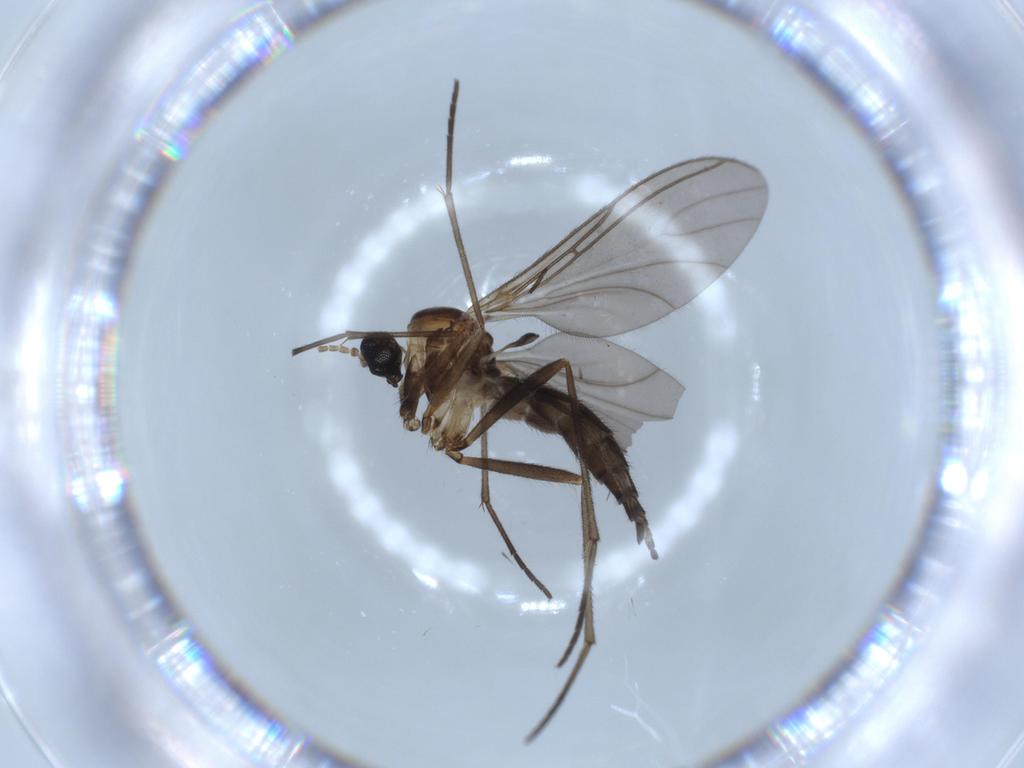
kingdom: Animalia
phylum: Arthropoda
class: Insecta
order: Diptera
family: Sciaridae
